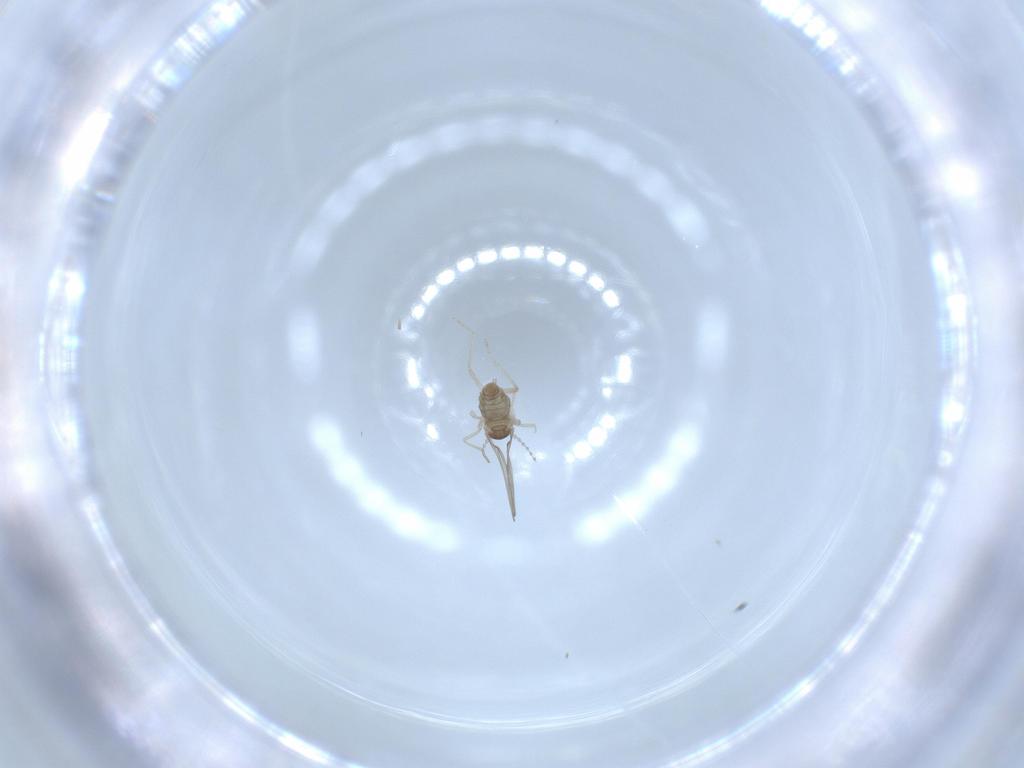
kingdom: Animalia
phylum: Arthropoda
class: Insecta
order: Diptera
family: Cecidomyiidae
